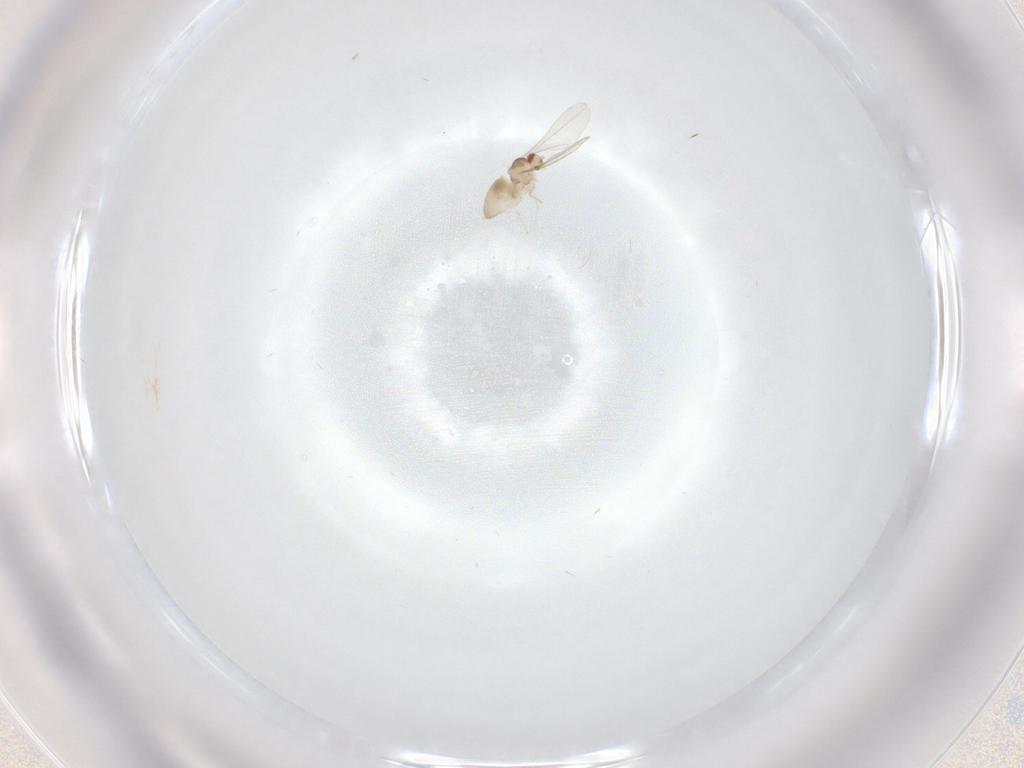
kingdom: Animalia
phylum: Arthropoda
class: Insecta
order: Diptera
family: Cecidomyiidae
